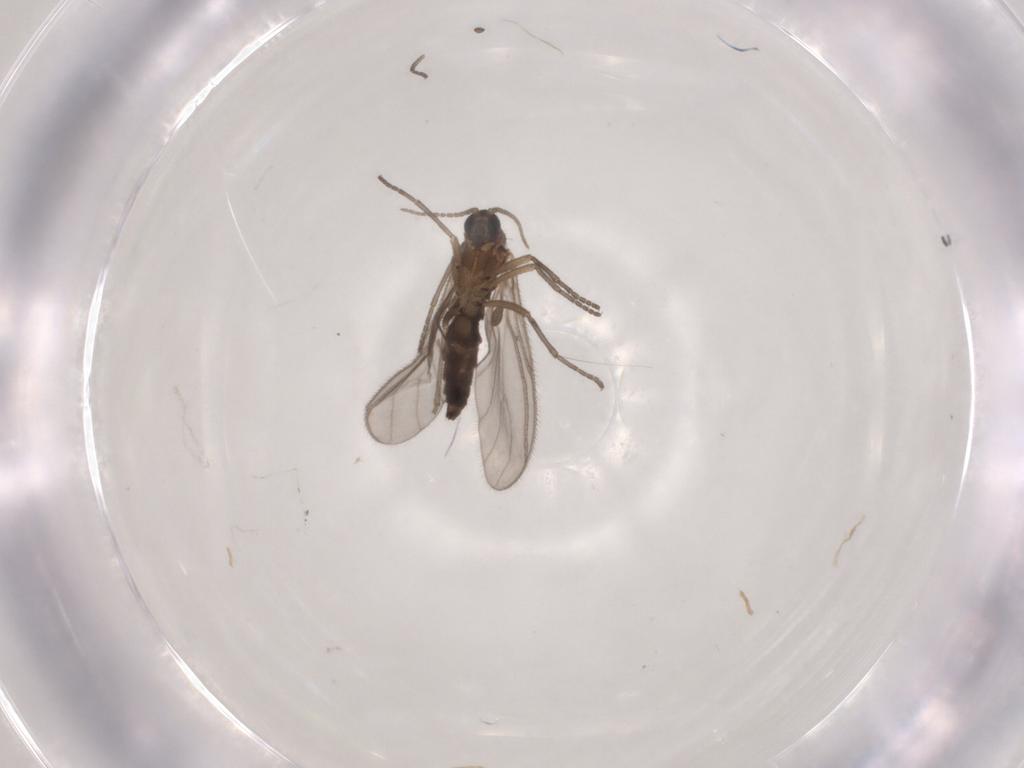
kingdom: Animalia
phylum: Arthropoda
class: Insecta
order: Diptera
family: Sciaridae
